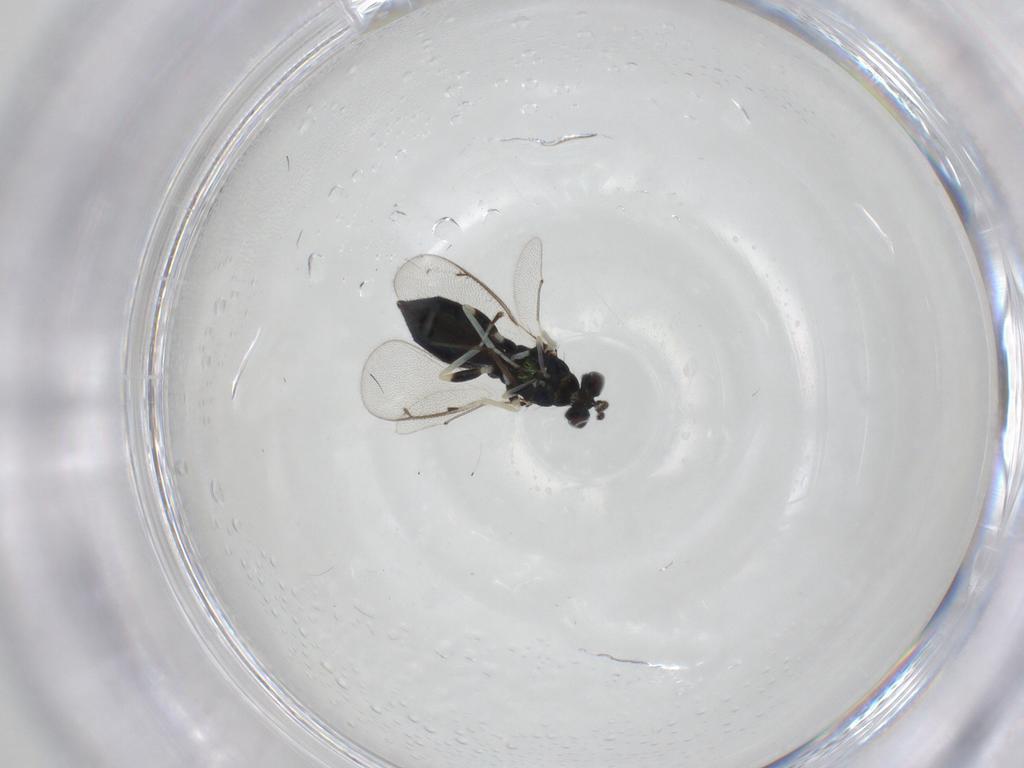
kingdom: Animalia
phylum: Arthropoda
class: Insecta
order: Hymenoptera
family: Eulophidae
